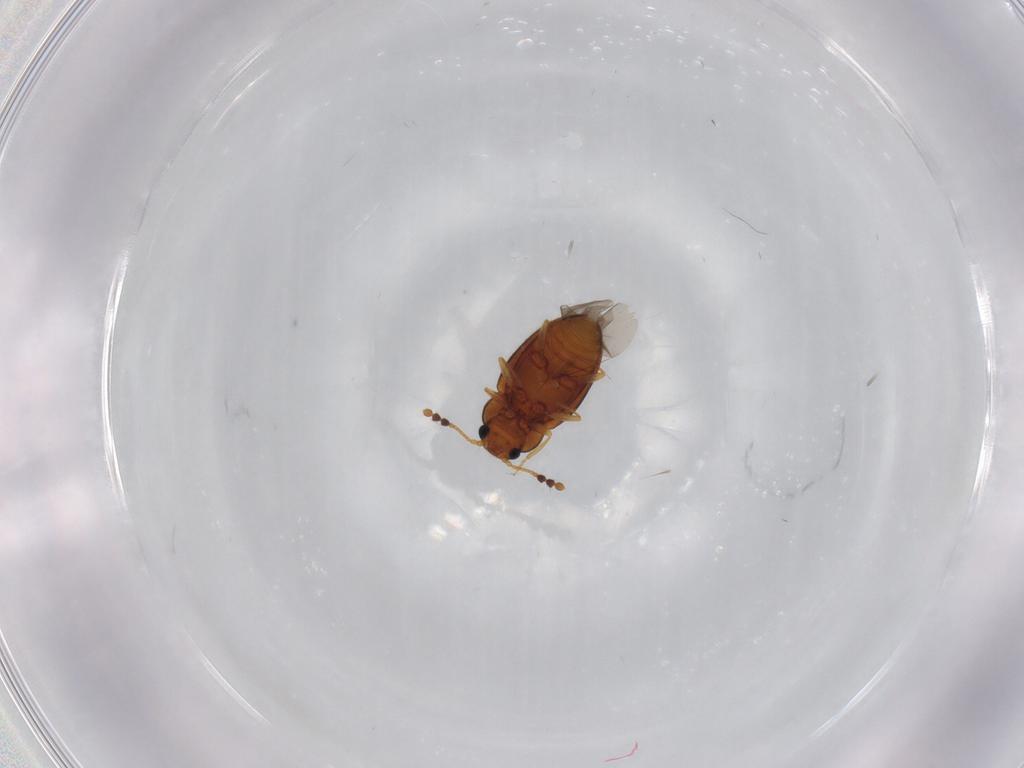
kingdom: Animalia
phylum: Arthropoda
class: Insecta
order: Coleoptera
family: Erotylidae
